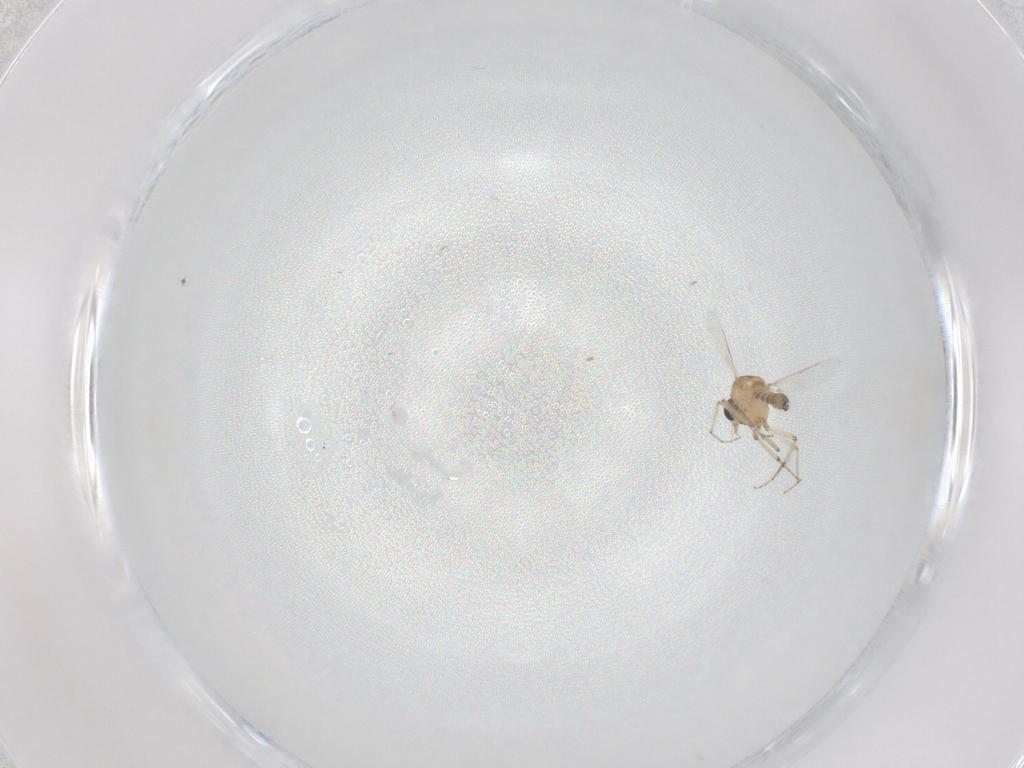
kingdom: Animalia
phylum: Arthropoda
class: Insecta
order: Diptera
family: Ceratopogonidae
